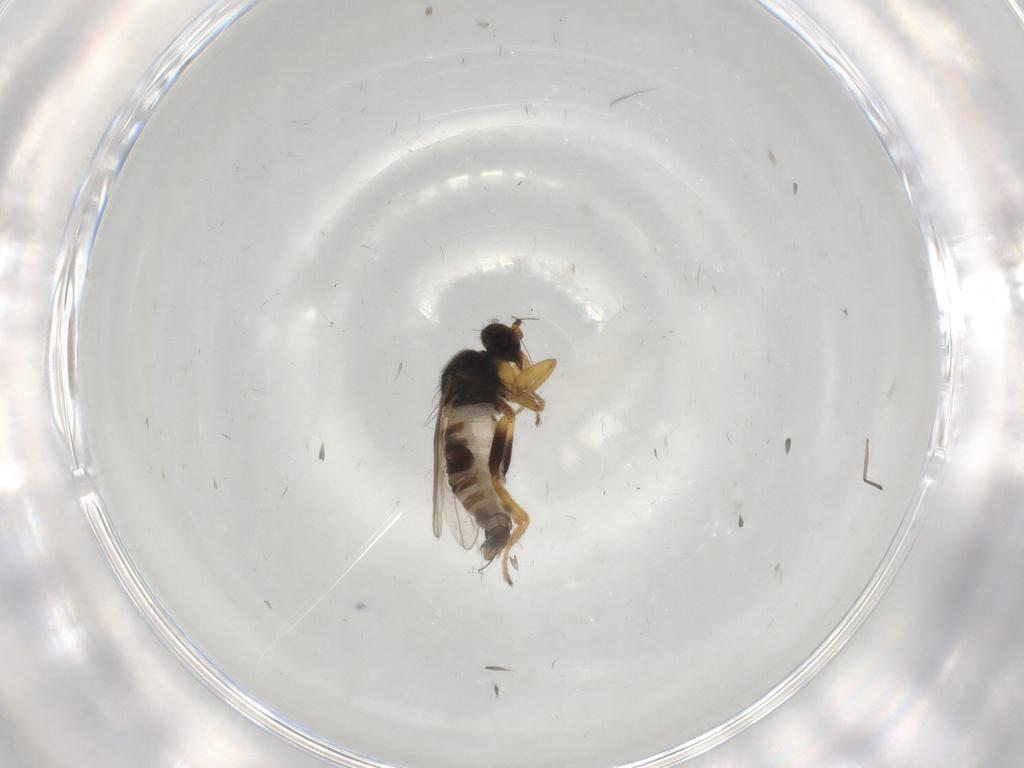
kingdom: Animalia
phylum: Arthropoda
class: Insecta
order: Diptera
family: Hybotidae
